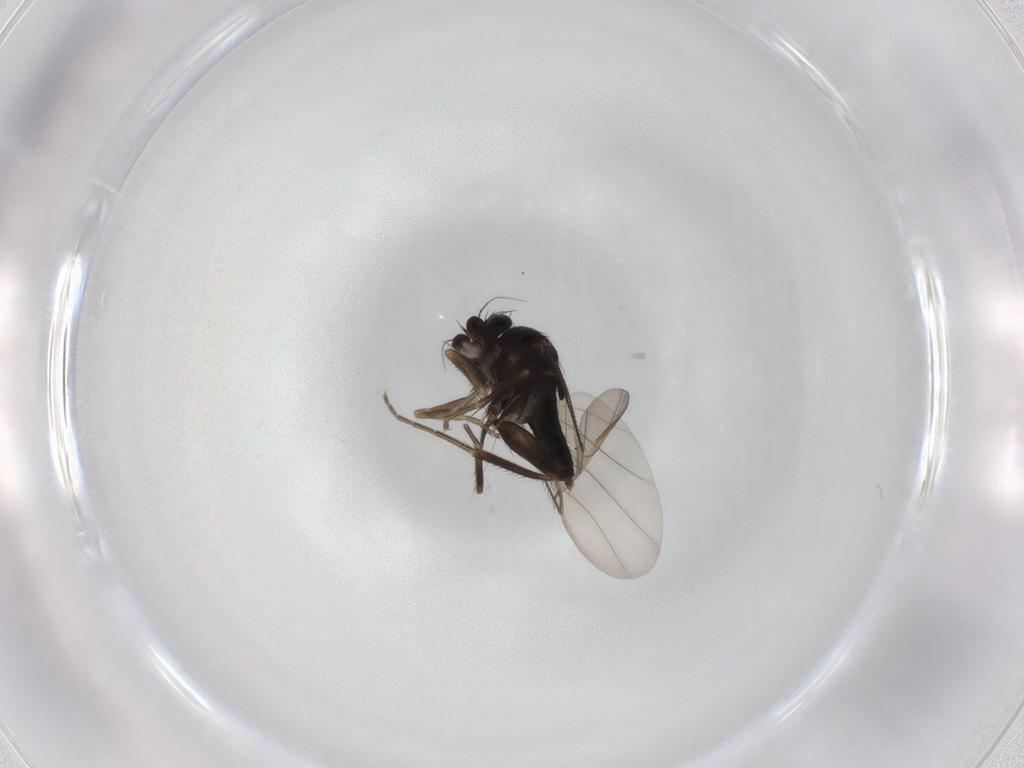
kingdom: Animalia
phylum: Arthropoda
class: Insecta
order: Diptera
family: Phoridae
